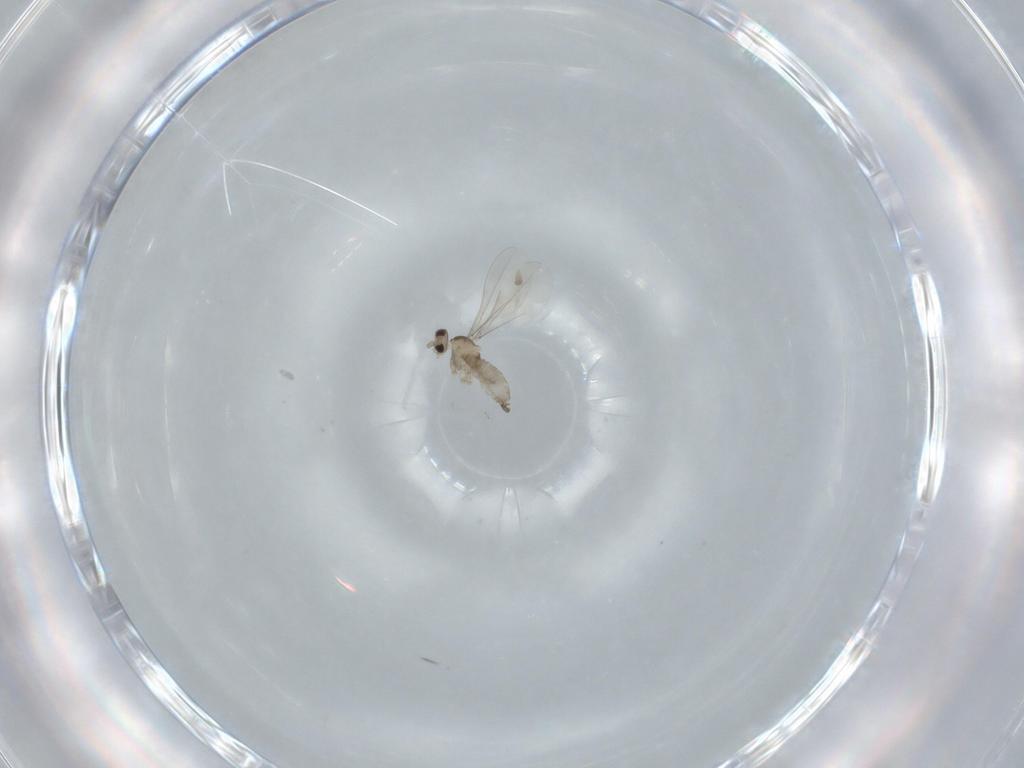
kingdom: Animalia
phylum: Arthropoda
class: Insecta
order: Diptera
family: Cecidomyiidae
